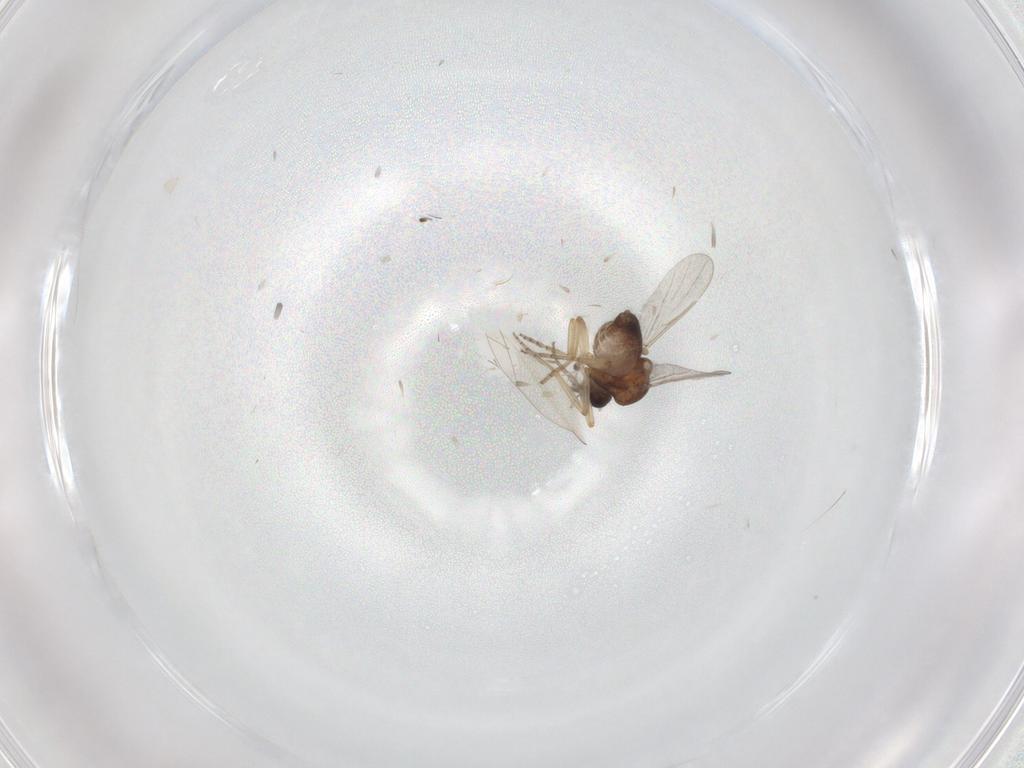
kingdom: Animalia
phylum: Arthropoda
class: Insecta
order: Diptera
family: Ceratopogonidae
